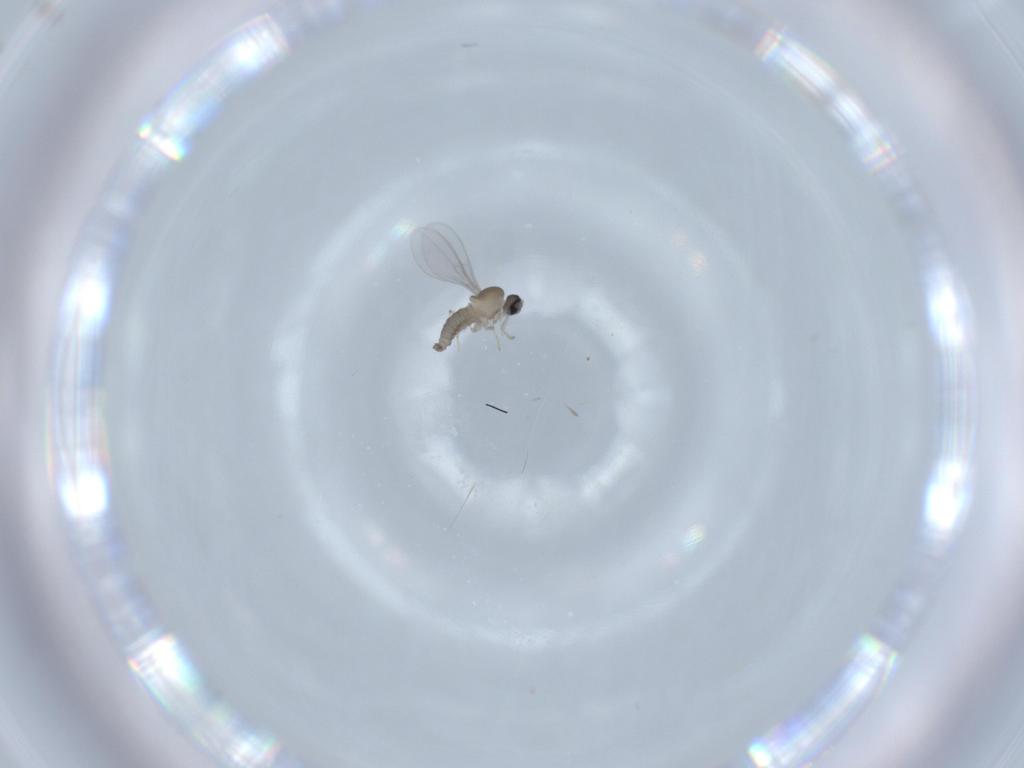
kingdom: Animalia
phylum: Arthropoda
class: Insecta
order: Diptera
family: Cecidomyiidae
